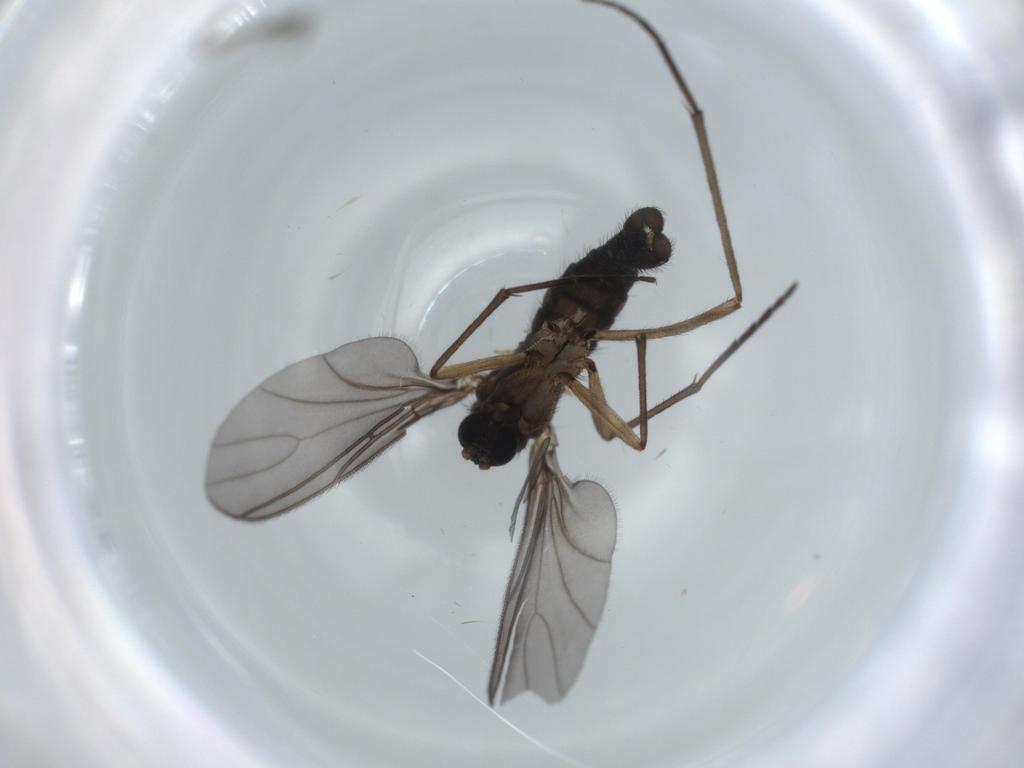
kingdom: Animalia
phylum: Arthropoda
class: Insecta
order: Diptera
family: Sciaridae
